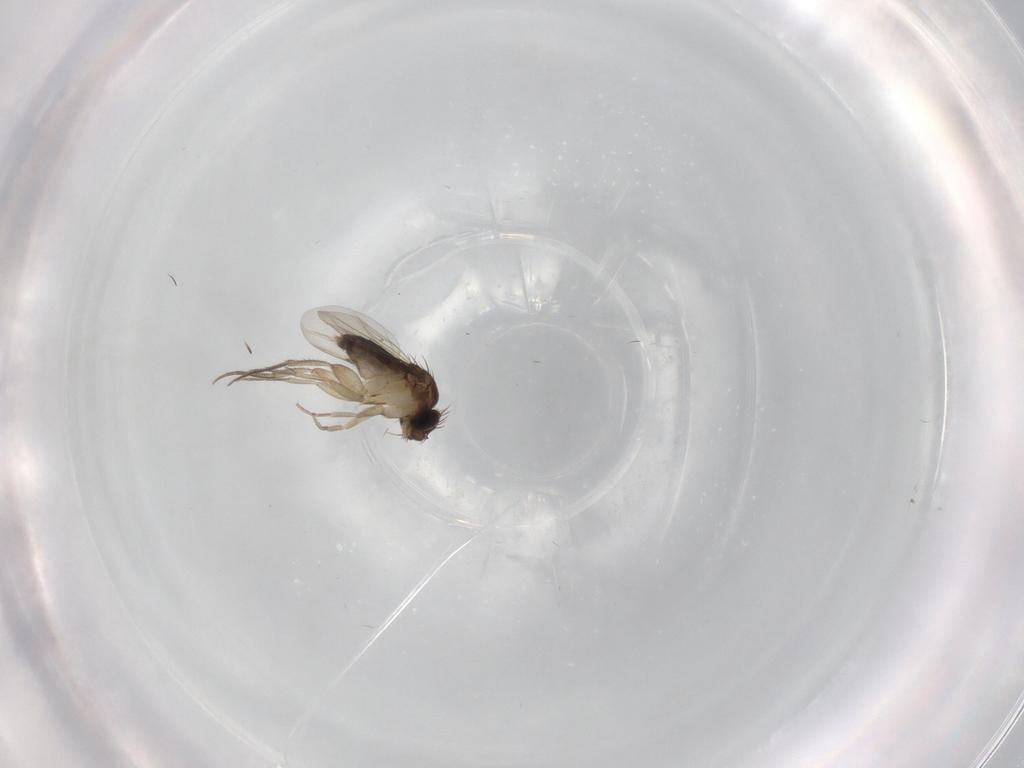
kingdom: Animalia
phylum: Arthropoda
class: Insecta
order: Diptera
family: Phoridae
